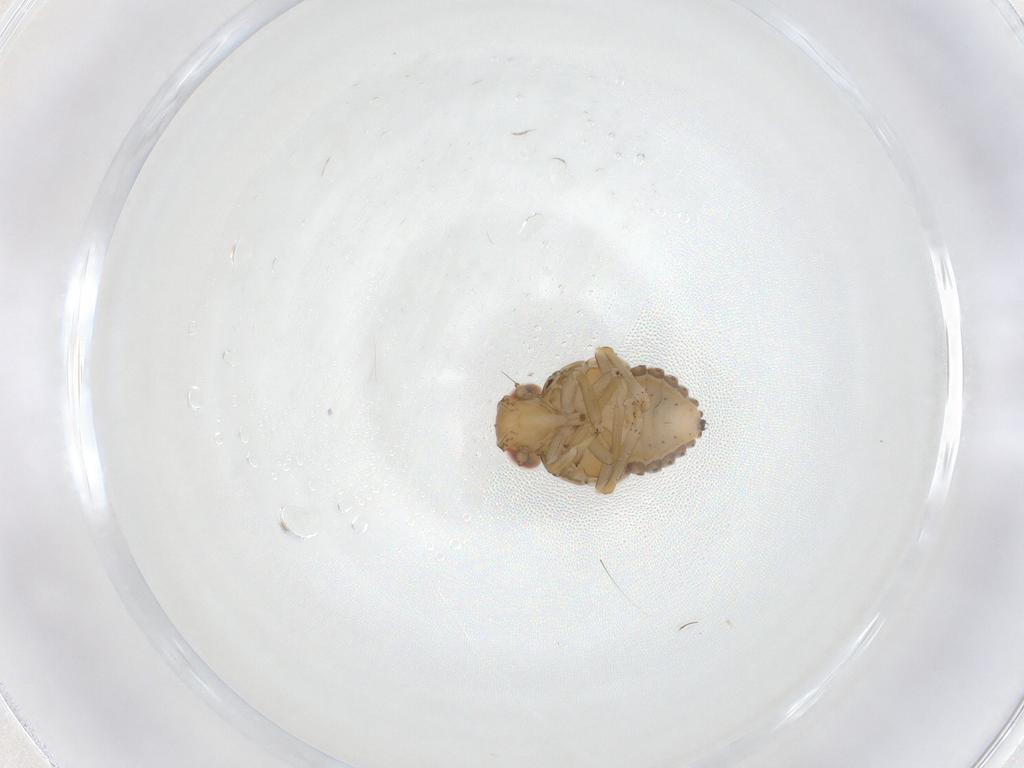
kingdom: Animalia
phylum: Arthropoda
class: Insecta
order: Hemiptera
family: Issidae
